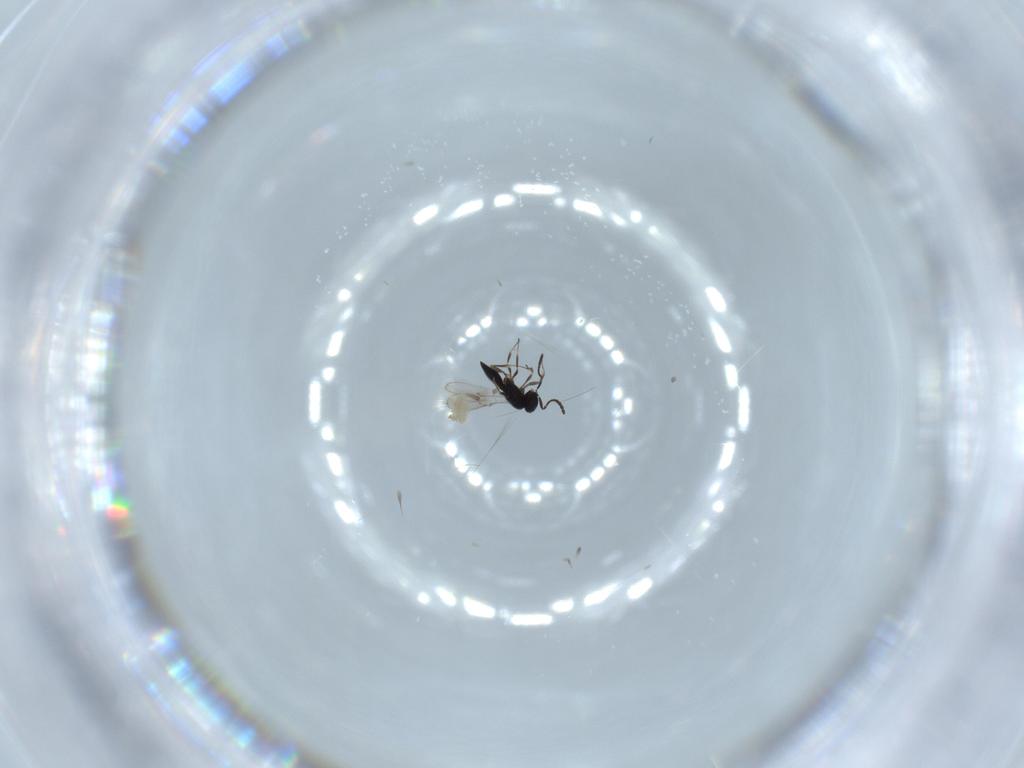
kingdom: Animalia
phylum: Arthropoda
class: Insecta
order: Hymenoptera
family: Scelionidae
